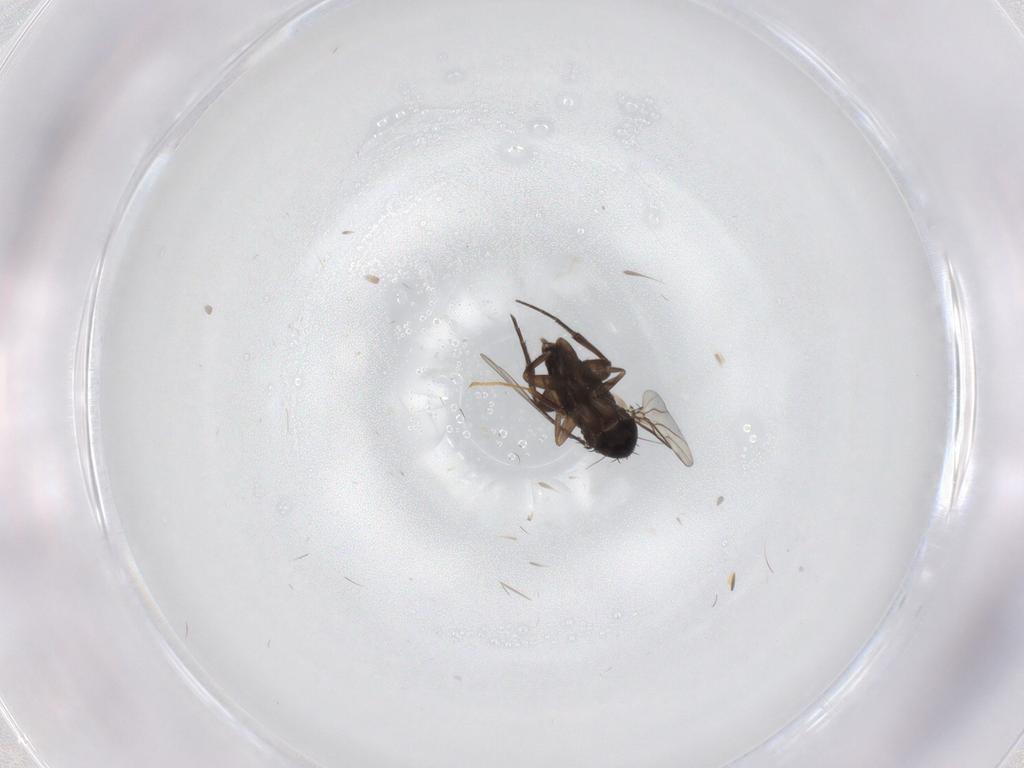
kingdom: Animalia
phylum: Arthropoda
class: Insecta
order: Diptera
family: Phoridae
